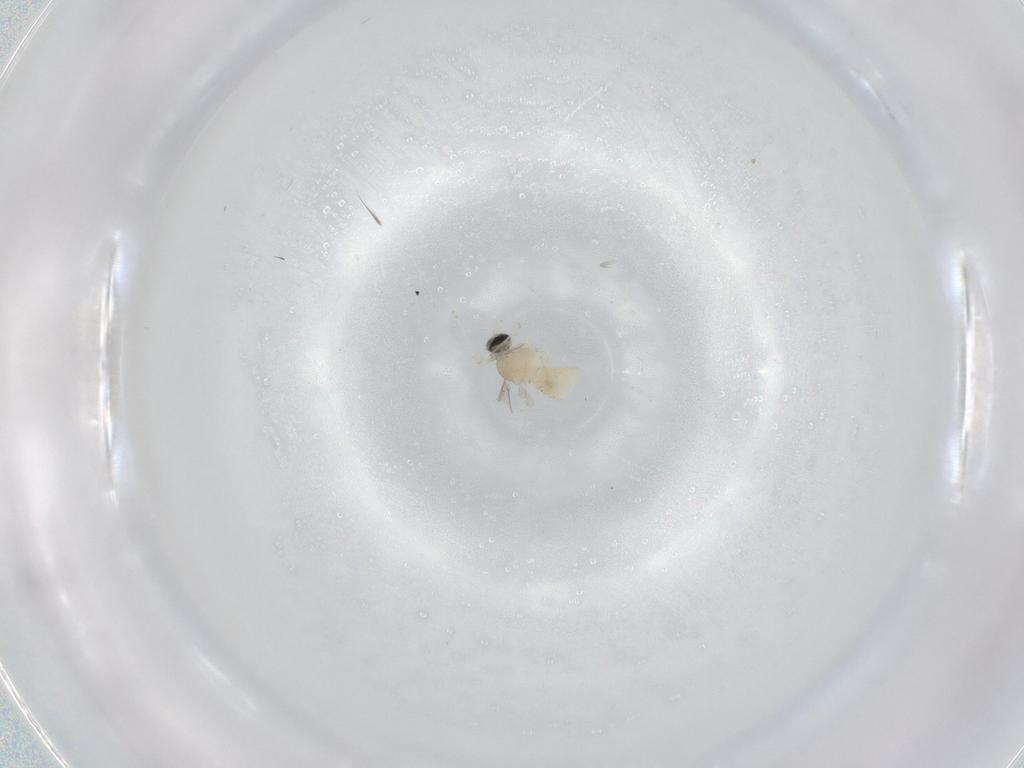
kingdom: Animalia
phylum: Arthropoda
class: Insecta
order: Diptera
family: Cecidomyiidae
